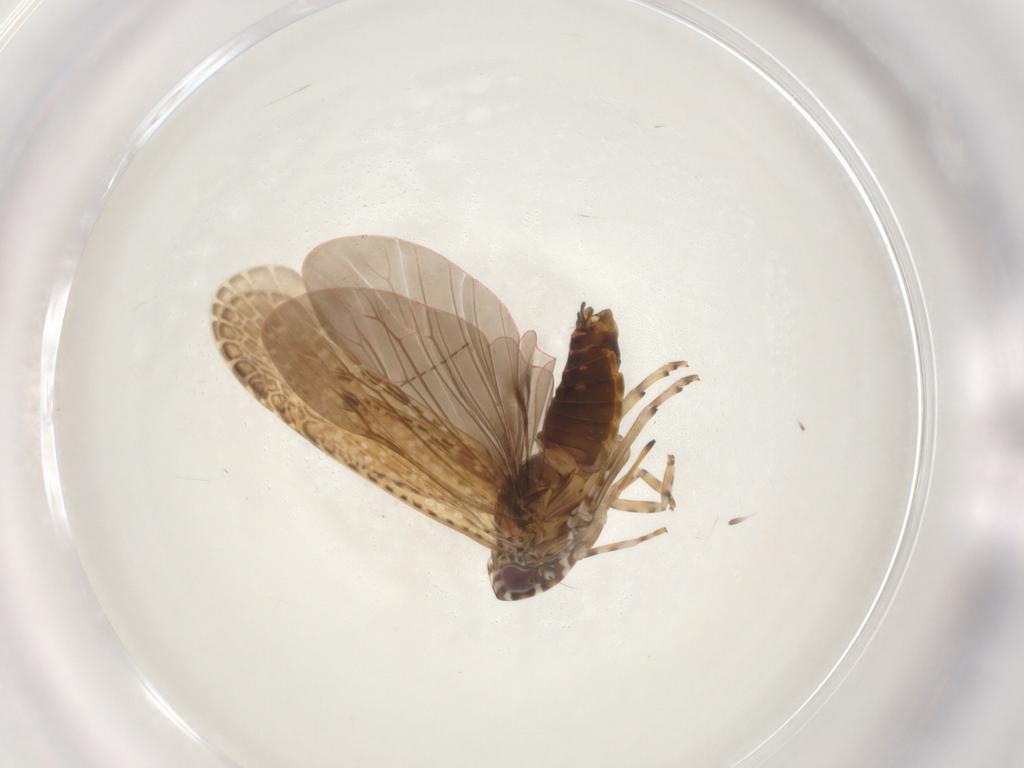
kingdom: Animalia
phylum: Arthropoda
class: Insecta
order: Hemiptera
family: Achilidae
